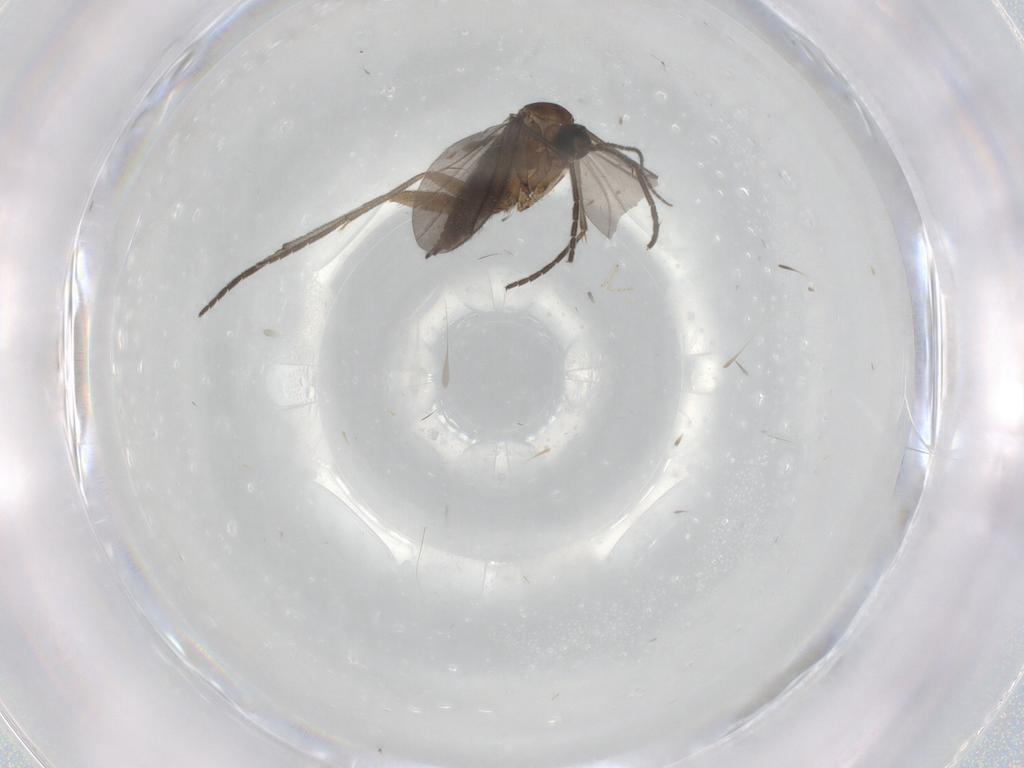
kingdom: Animalia
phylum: Arthropoda
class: Insecta
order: Diptera
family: Cecidomyiidae
